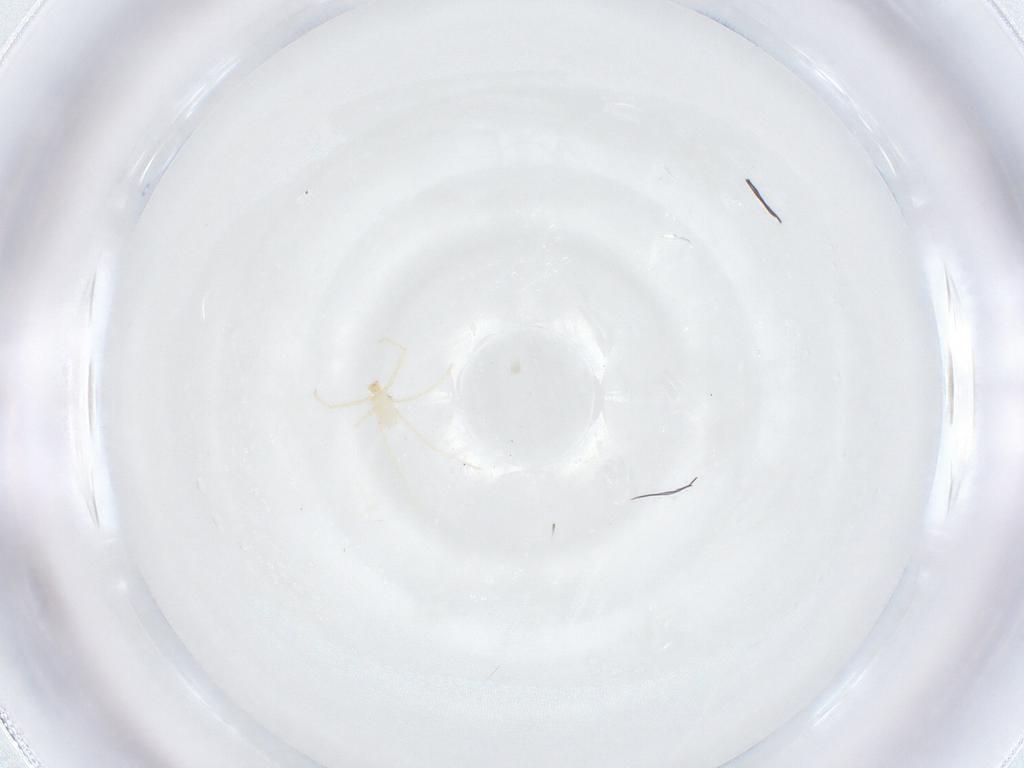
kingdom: Animalia
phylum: Arthropoda
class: Arachnida
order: Trombidiformes
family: Erythraeidae
